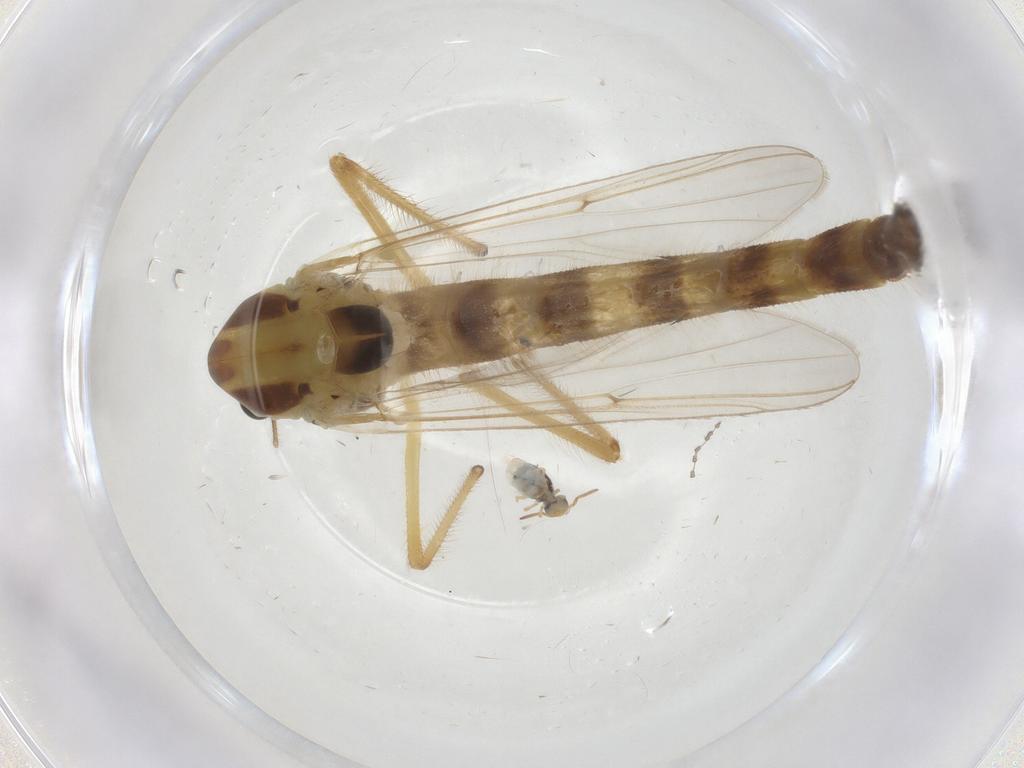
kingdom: Animalia
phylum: Arthropoda
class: Insecta
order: Diptera
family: Chironomidae
